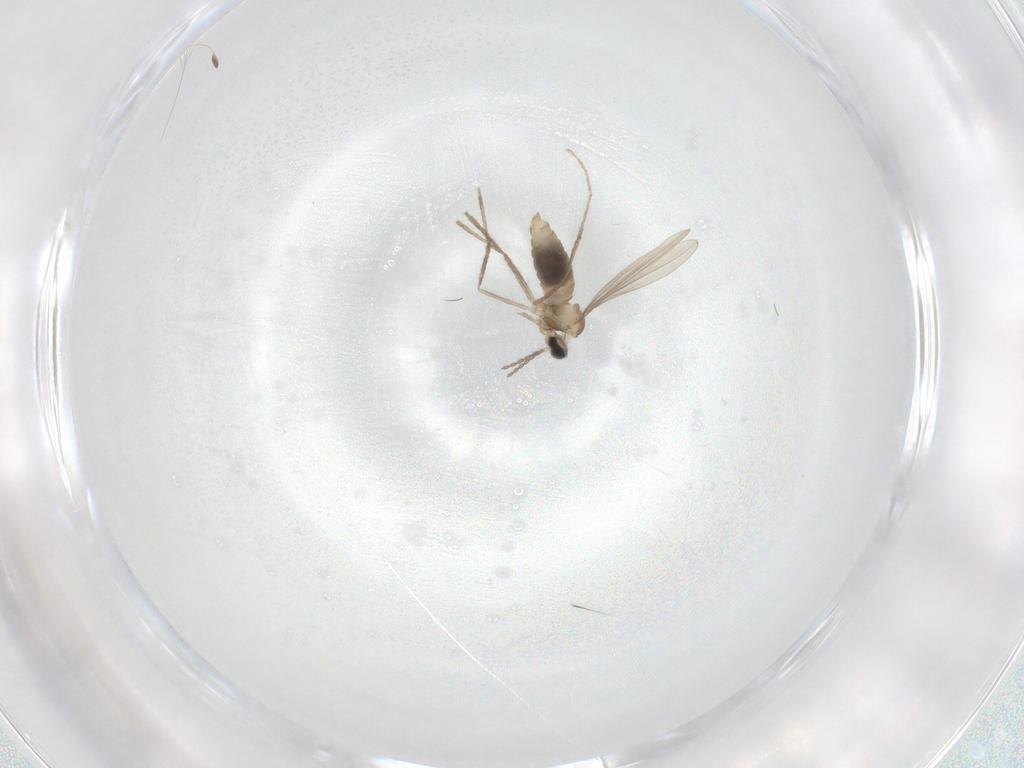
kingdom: Animalia
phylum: Arthropoda
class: Insecta
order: Diptera
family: Cecidomyiidae
